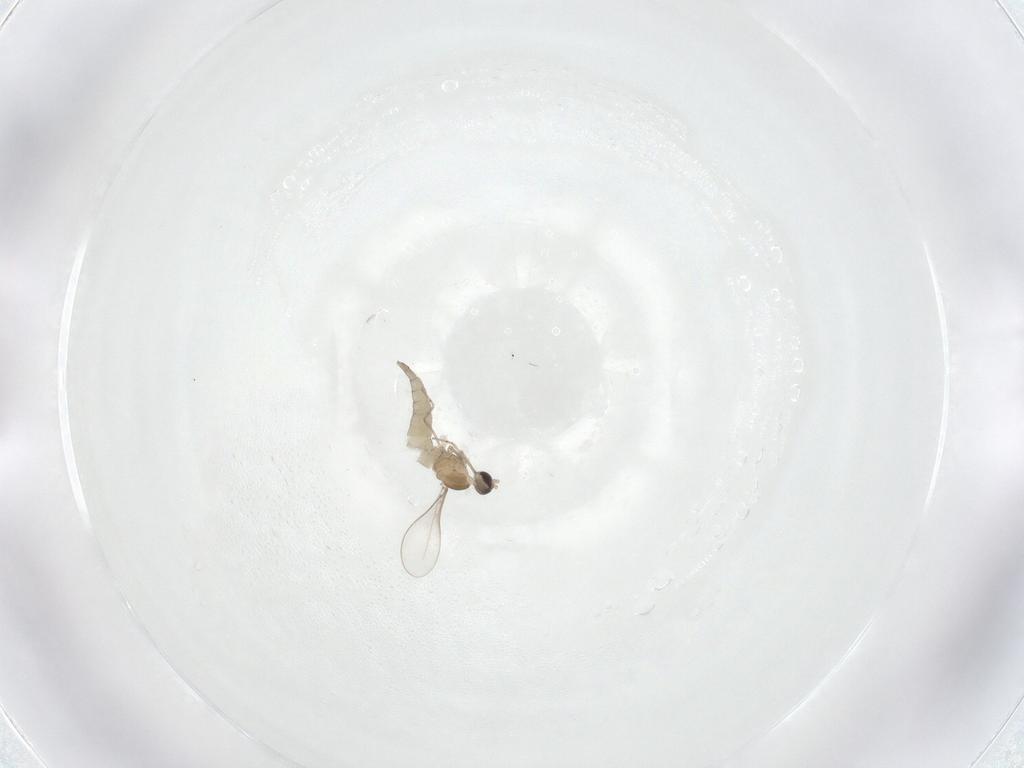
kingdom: Animalia
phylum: Arthropoda
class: Insecta
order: Diptera
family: Cecidomyiidae
